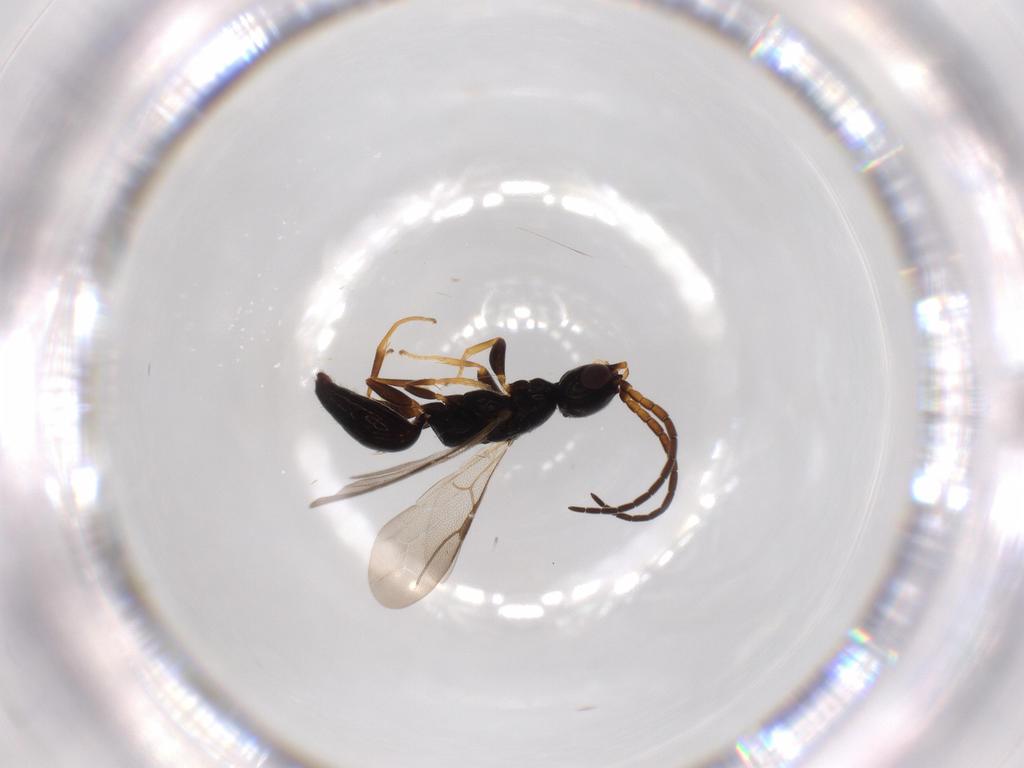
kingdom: Animalia
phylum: Arthropoda
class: Insecta
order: Hymenoptera
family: Bethylidae
